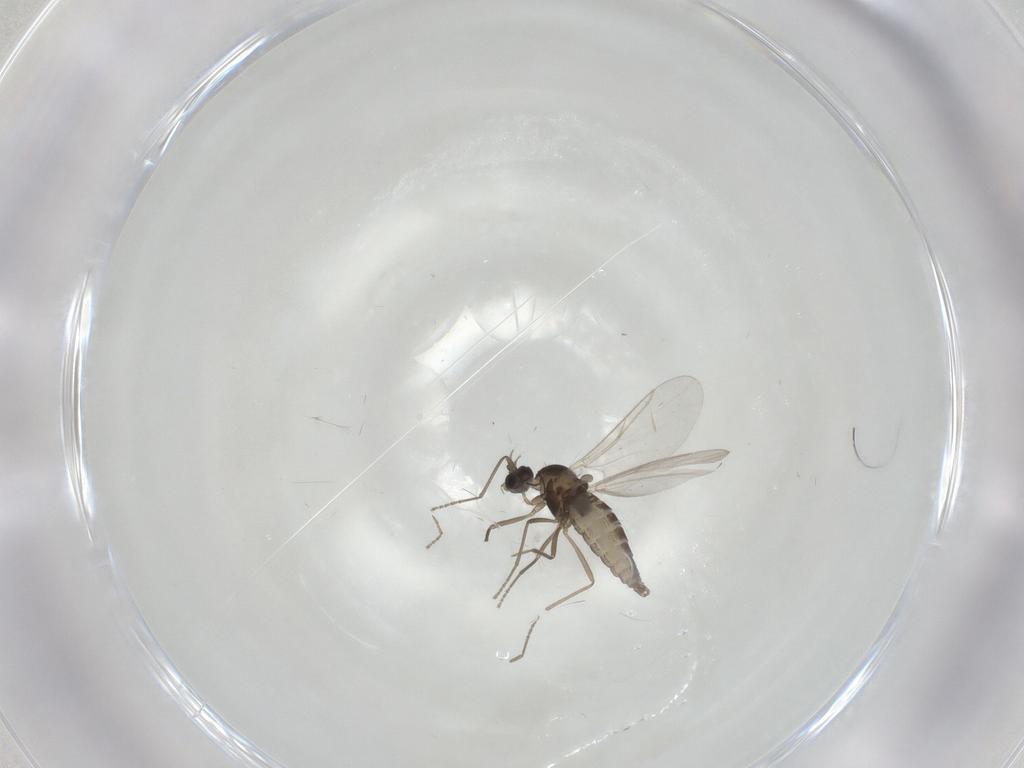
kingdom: Animalia
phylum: Arthropoda
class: Insecta
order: Diptera
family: Cecidomyiidae
